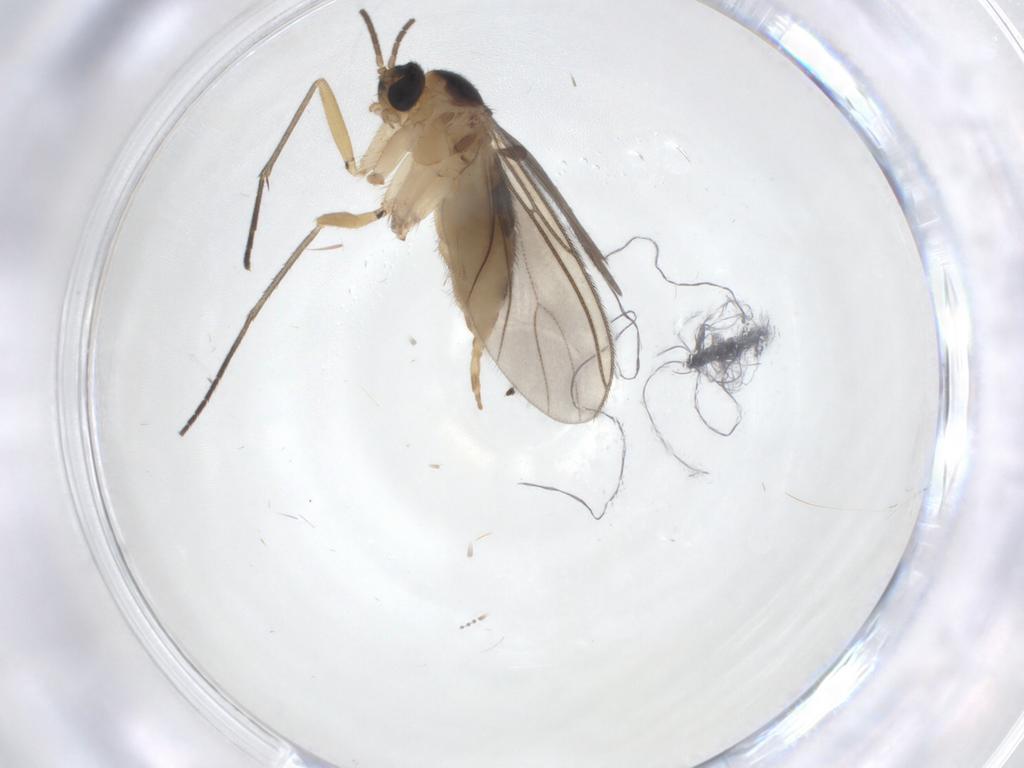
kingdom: Animalia
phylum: Arthropoda
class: Insecta
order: Diptera
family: Sciaridae
